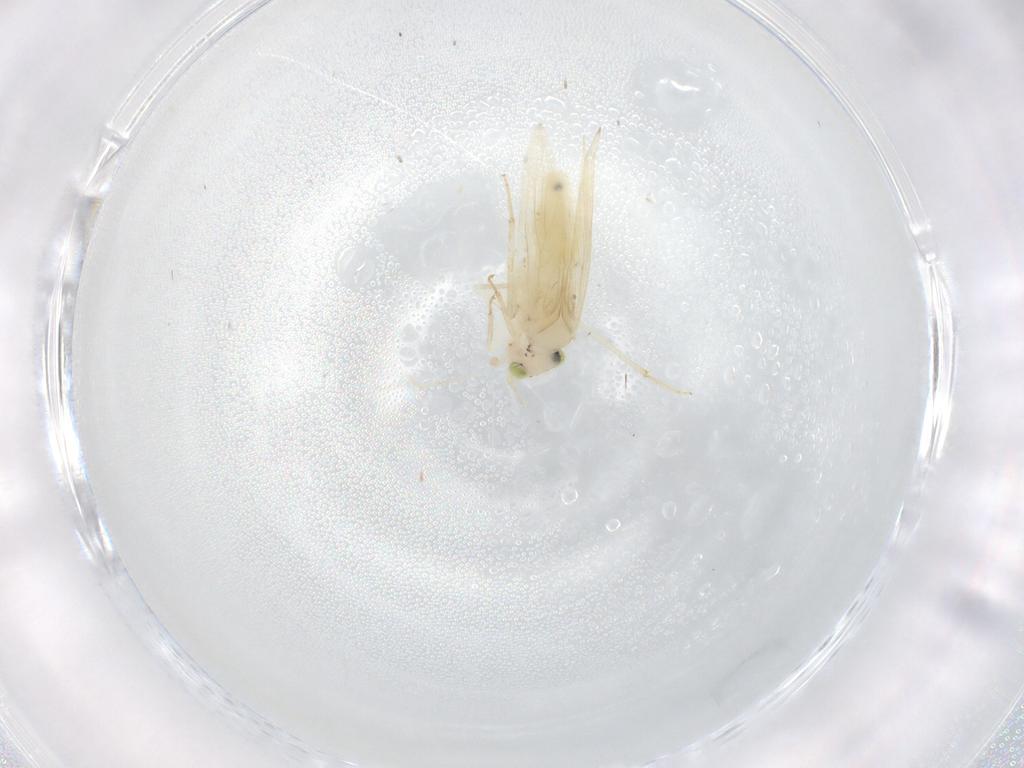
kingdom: Animalia
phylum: Arthropoda
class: Insecta
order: Psocodea
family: Lepidopsocidae
